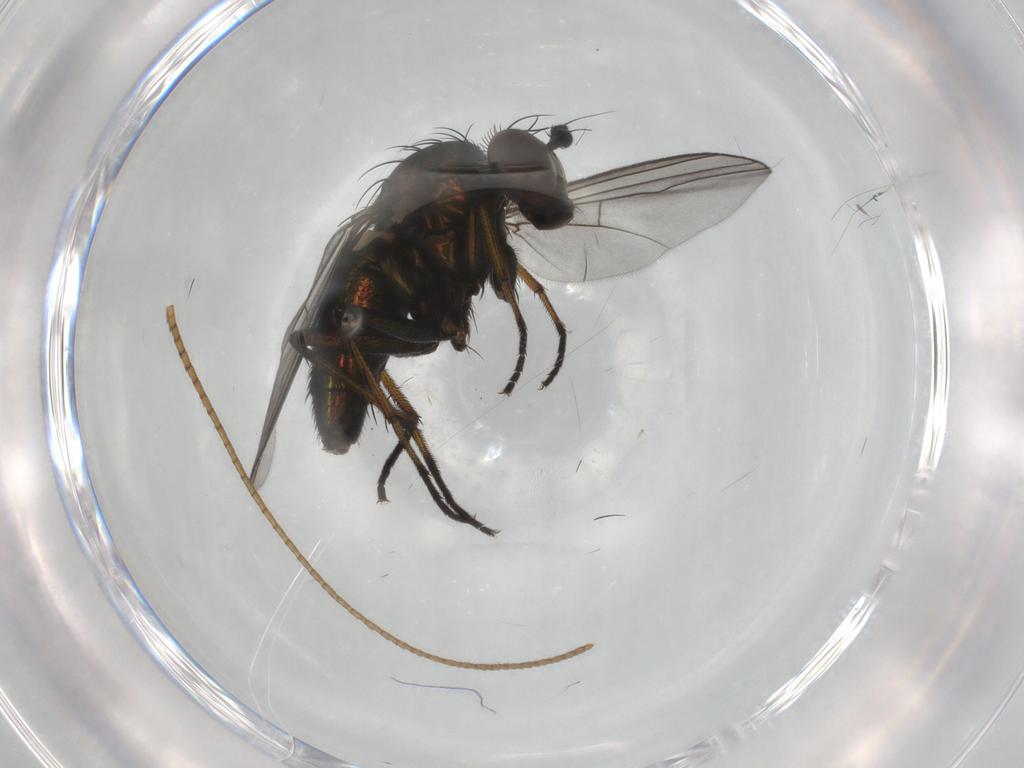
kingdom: Animalia
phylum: Arthropoda
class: Insecta
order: Diptera
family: Dolichopodidae
